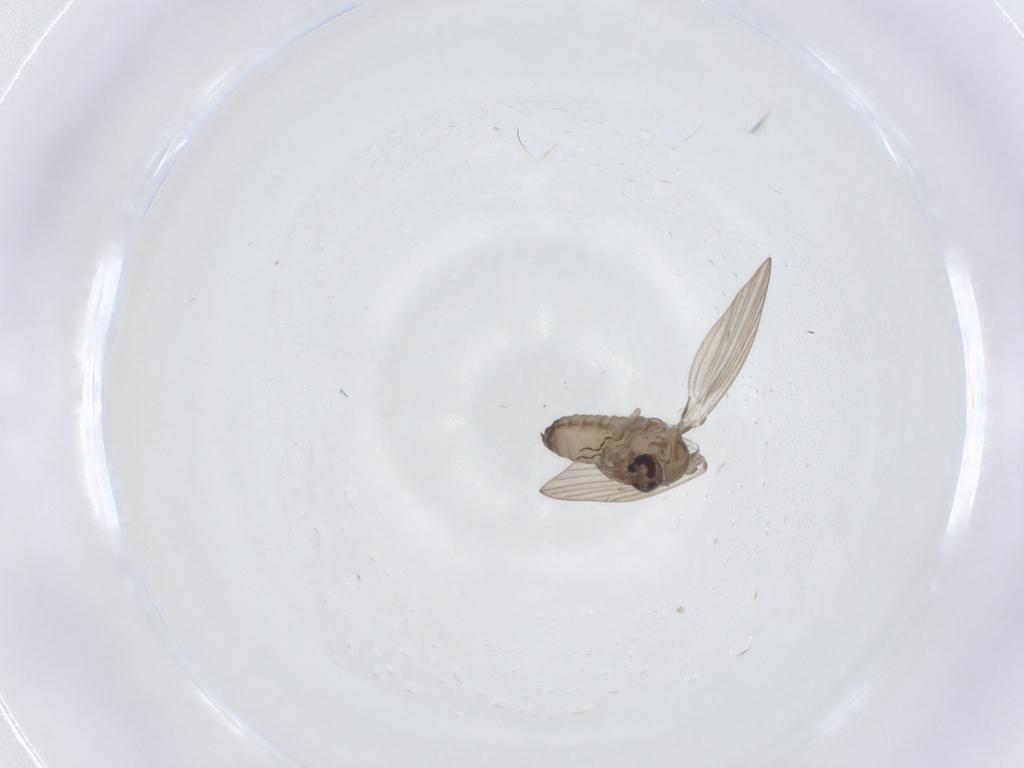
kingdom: Animalia
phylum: Arthropoda
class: Insecta
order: Diptera
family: Psychodidae
